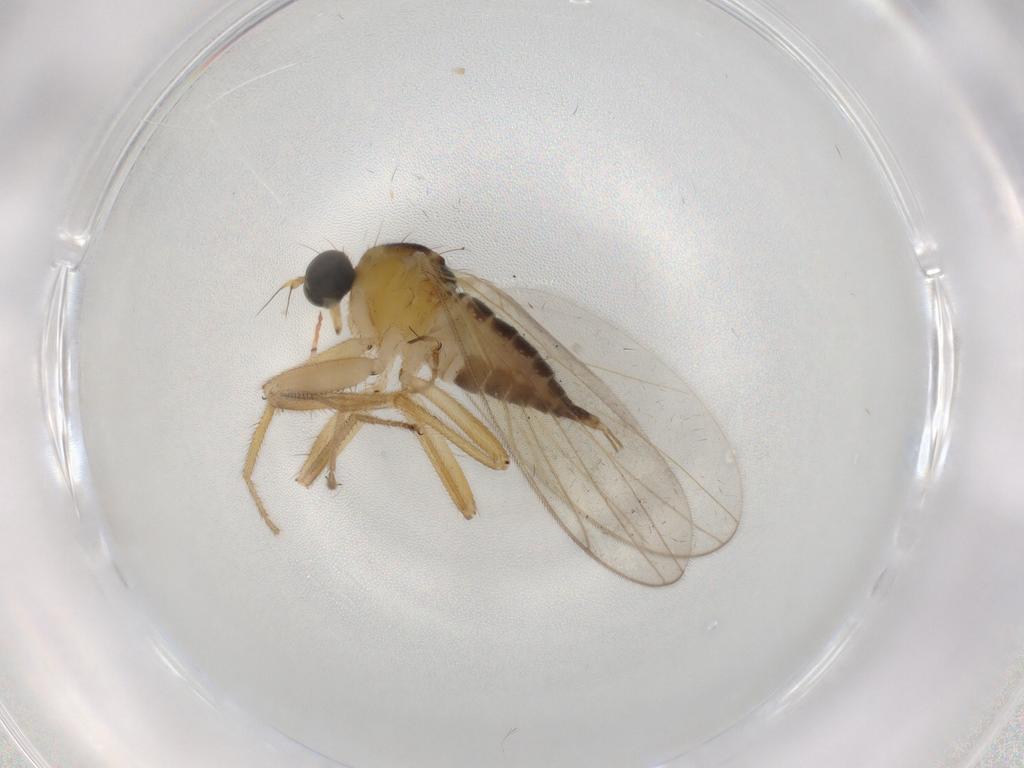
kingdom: Animalia
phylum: Arthropoda
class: Insecta
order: Diptera
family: Hybotidae
